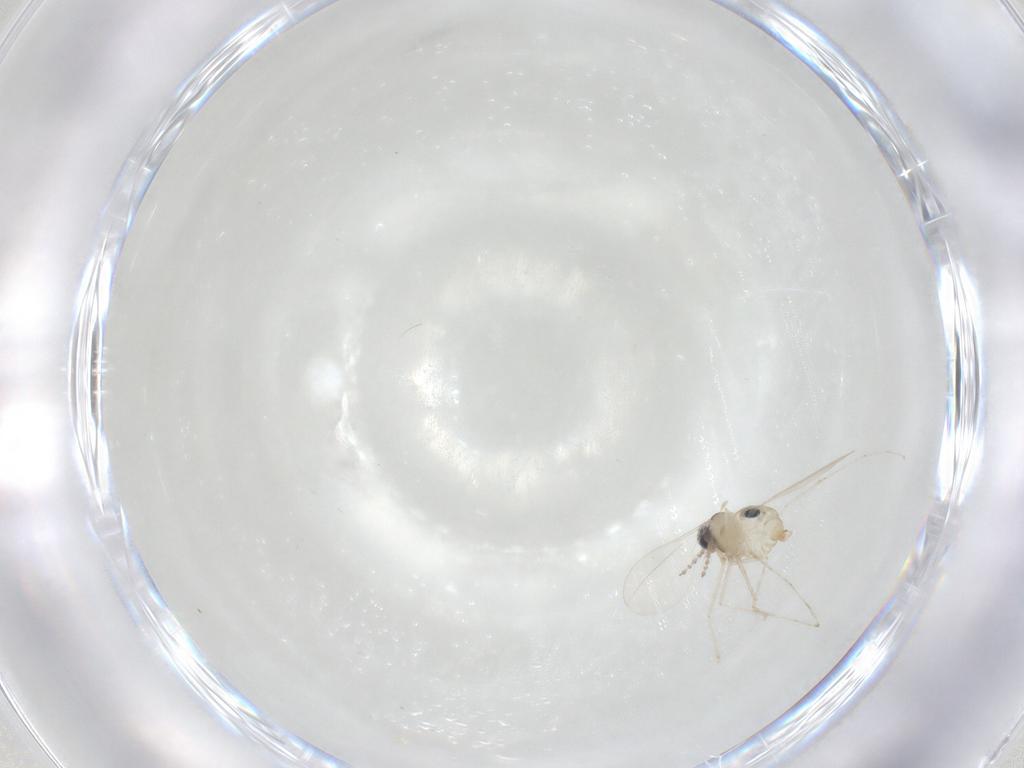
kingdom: Animalia
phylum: Arthropoda
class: Insecta
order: Diptera
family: Cecidomyiidae
